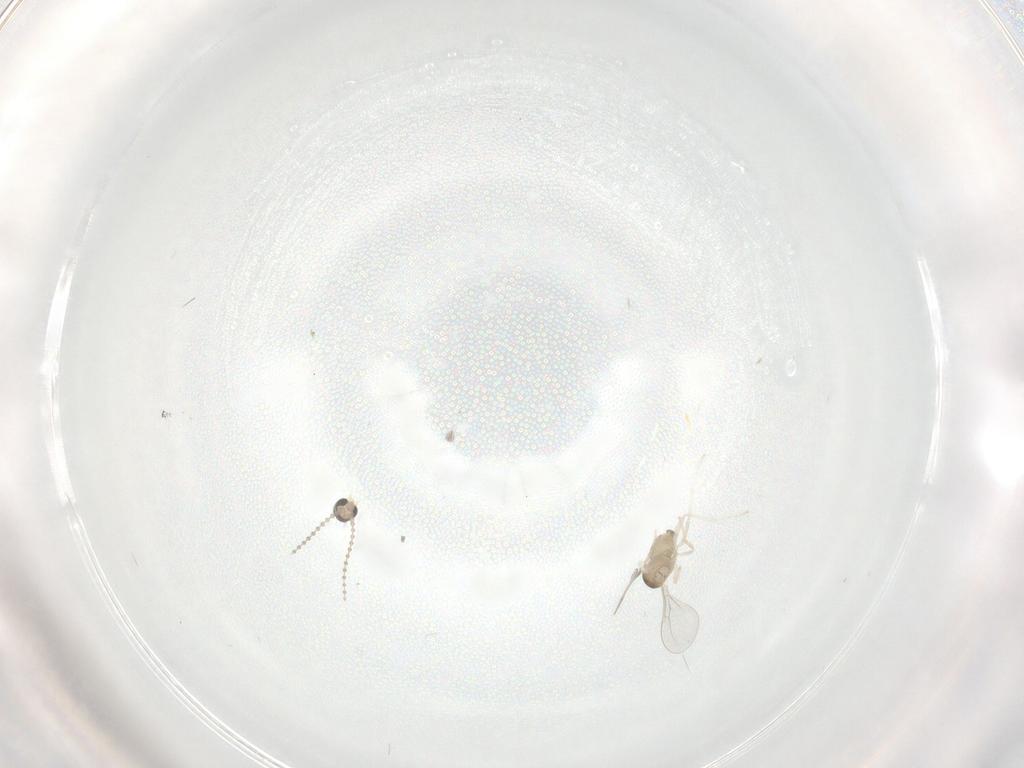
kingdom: Animalia
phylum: Arthropoda
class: Insecta
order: Diptera
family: Cecidomyiidae
